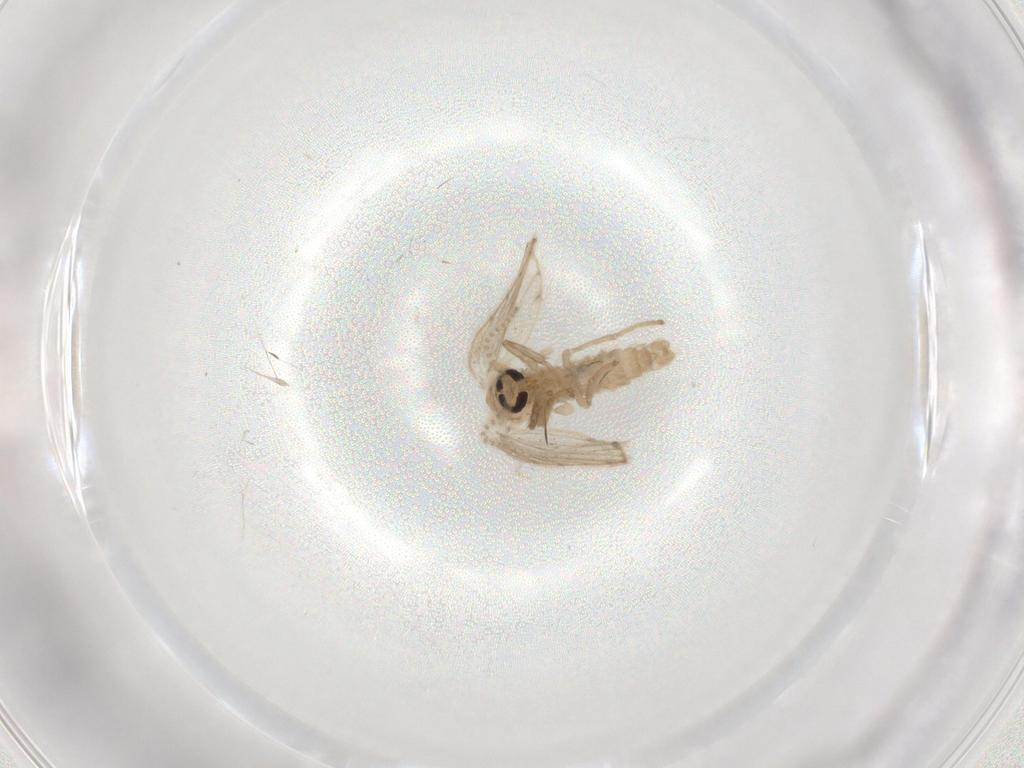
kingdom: Animalia
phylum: Arthropoda
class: Insecta
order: Diptera
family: Psychodidae
